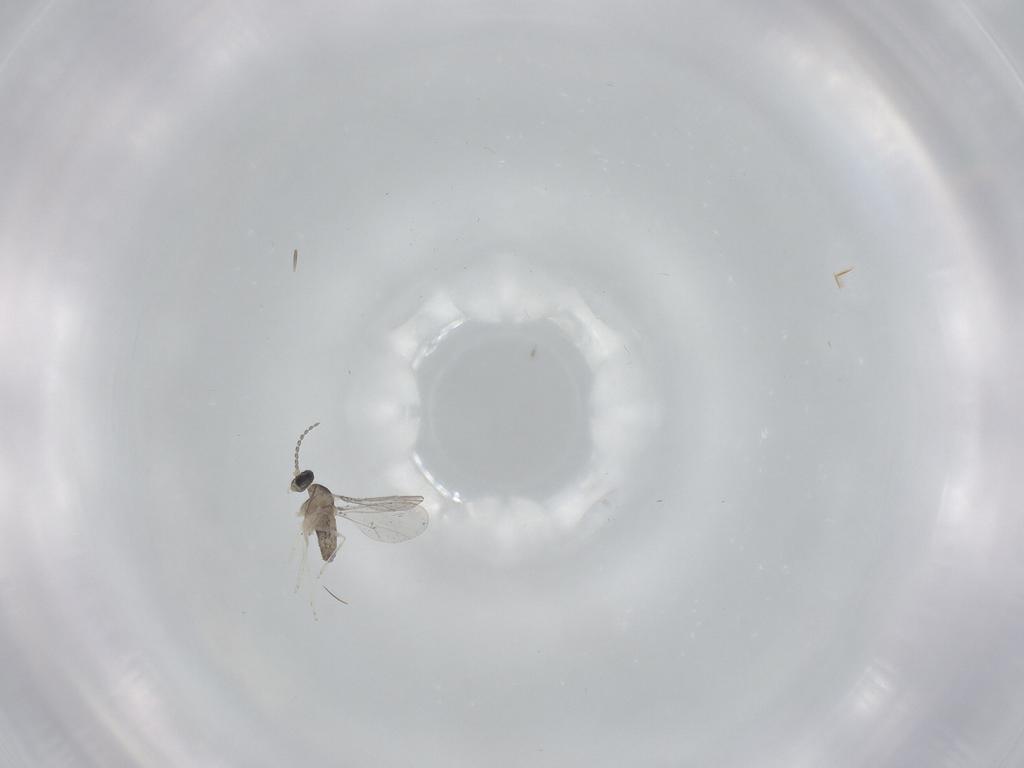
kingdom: Animalia
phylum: Arthropoda
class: Insecta
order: Diptera
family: Cecidomyiidae
